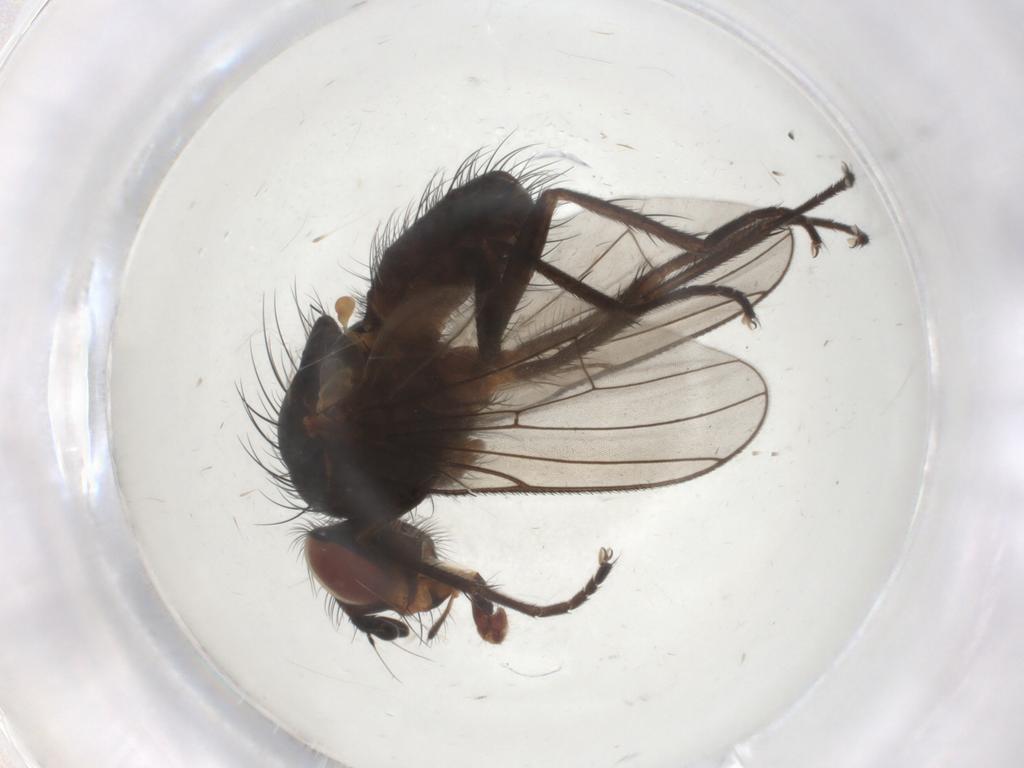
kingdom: Animalia
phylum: Arthropoda
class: Insecta
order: Diptera
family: Anthomyiidae
